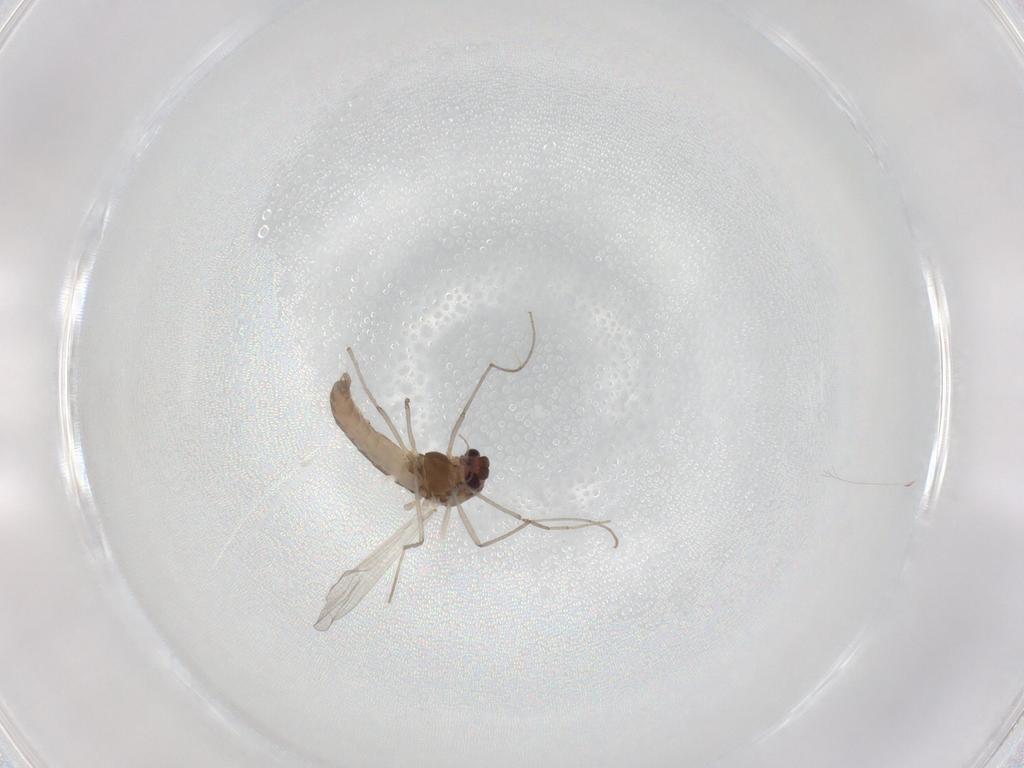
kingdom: Animalia
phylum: Arthropoda
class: Insecta
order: Diptera
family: Chironomidae
